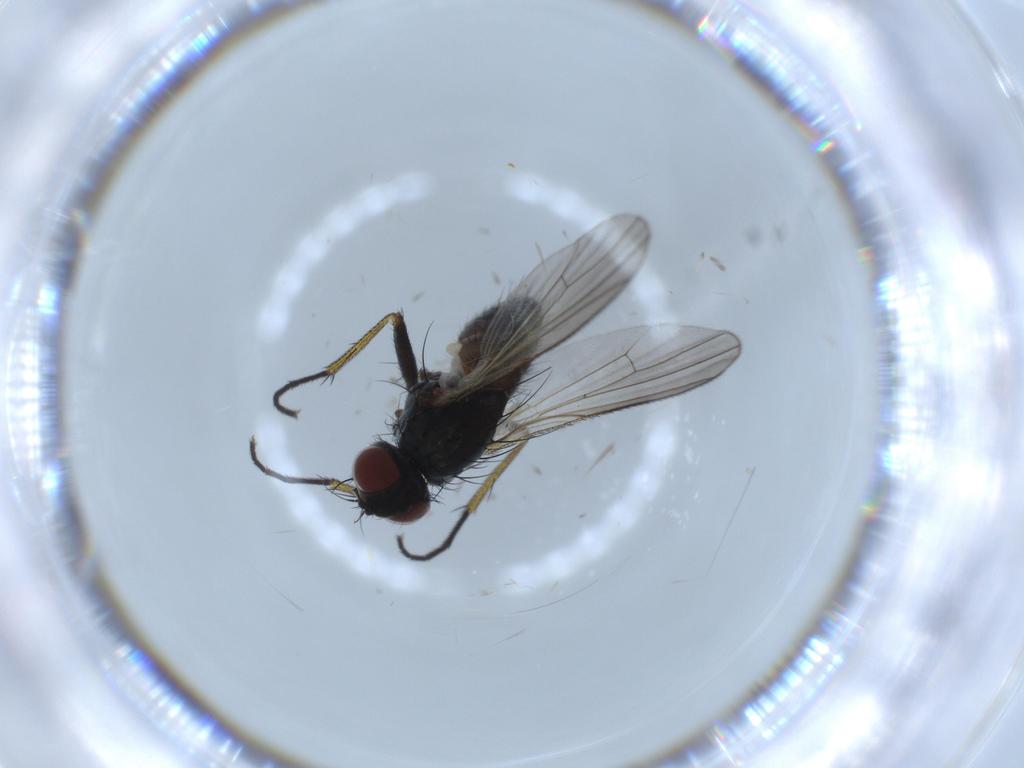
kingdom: Animalia
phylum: Arthropoda
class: Insecta
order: Diptera
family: Muscidae
